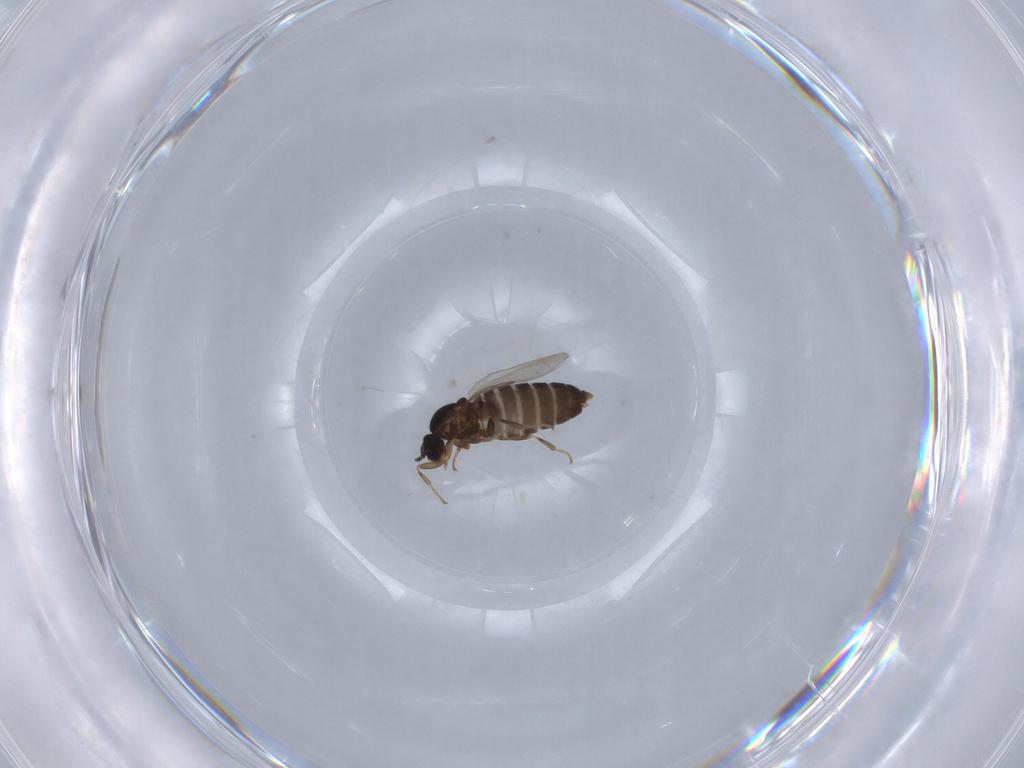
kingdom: Animalia
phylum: Arthropoda
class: Insecta
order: Diptera
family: Scatopsidae
